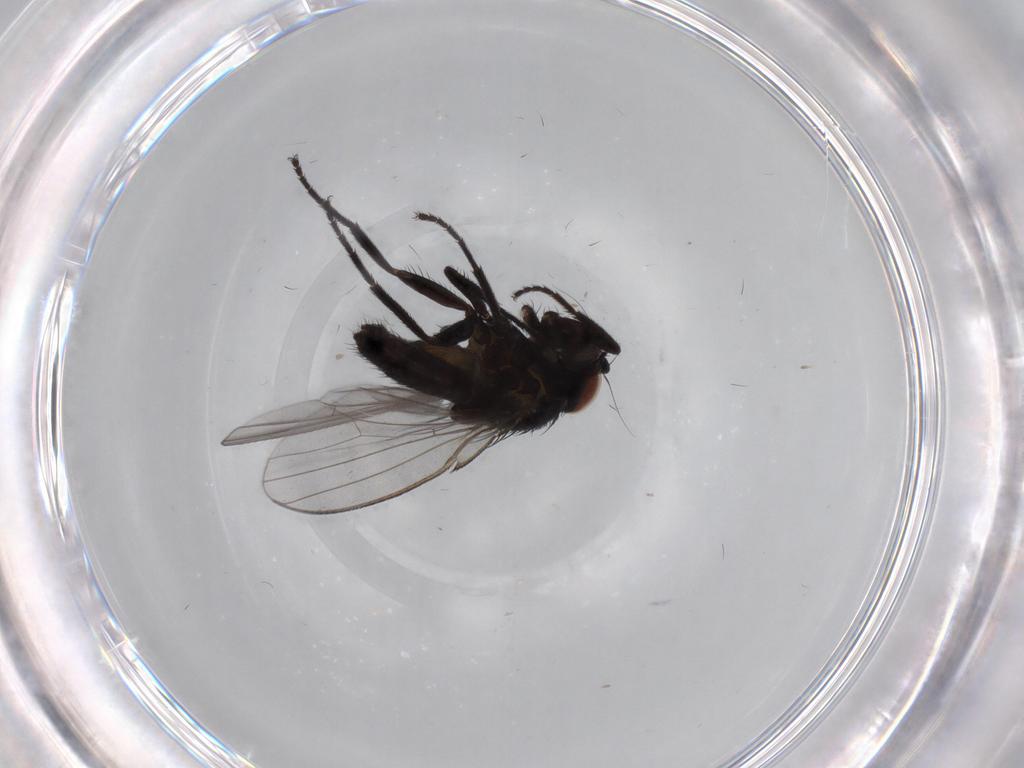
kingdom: Animalia
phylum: Arthropoda
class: Insecta
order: Diptera
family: Milichiidae
